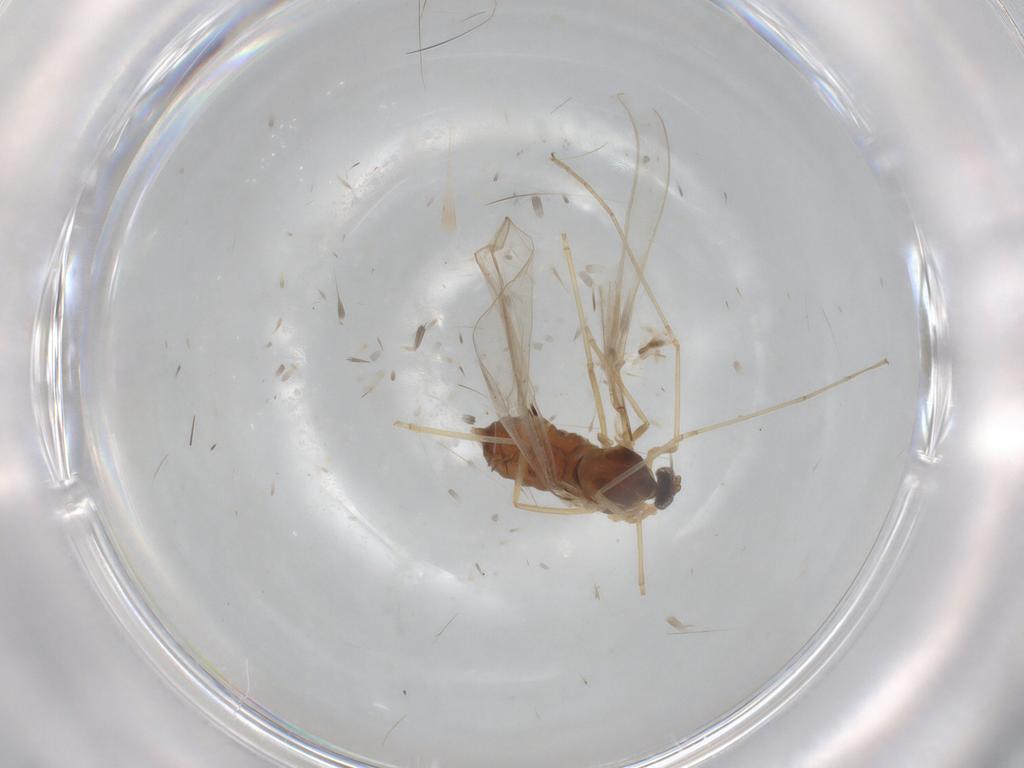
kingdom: Animalia
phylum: Arthropoda
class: Insecta
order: Diptera
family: Cecidomyiidae
